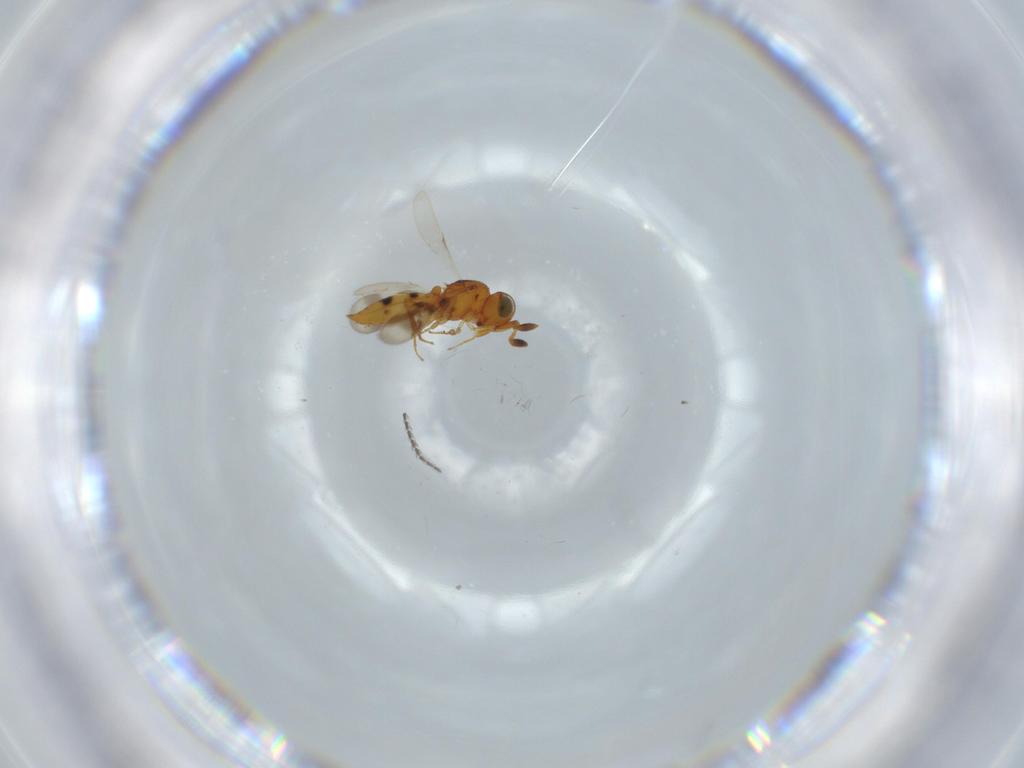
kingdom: Animalia
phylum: Arthropoda
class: Insecta
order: Hymenoptera
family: Scelionidae
